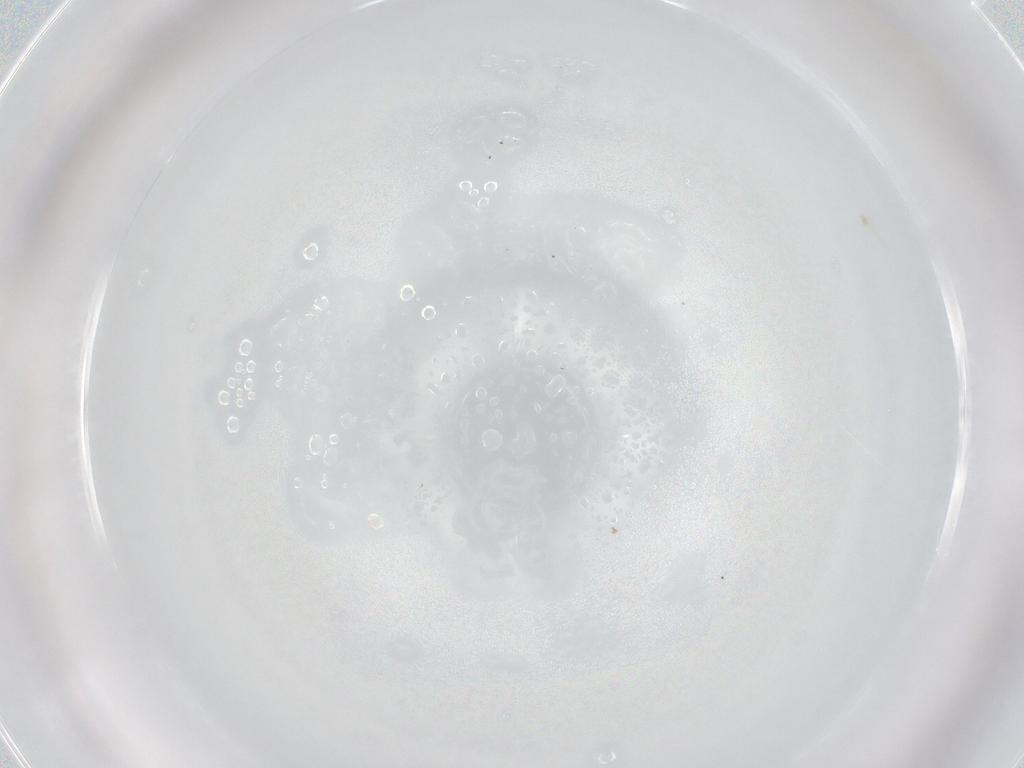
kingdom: Animalia
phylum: Arthropoda
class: Arachnida
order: Sarcoptiformes
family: Brachychthoniidae
